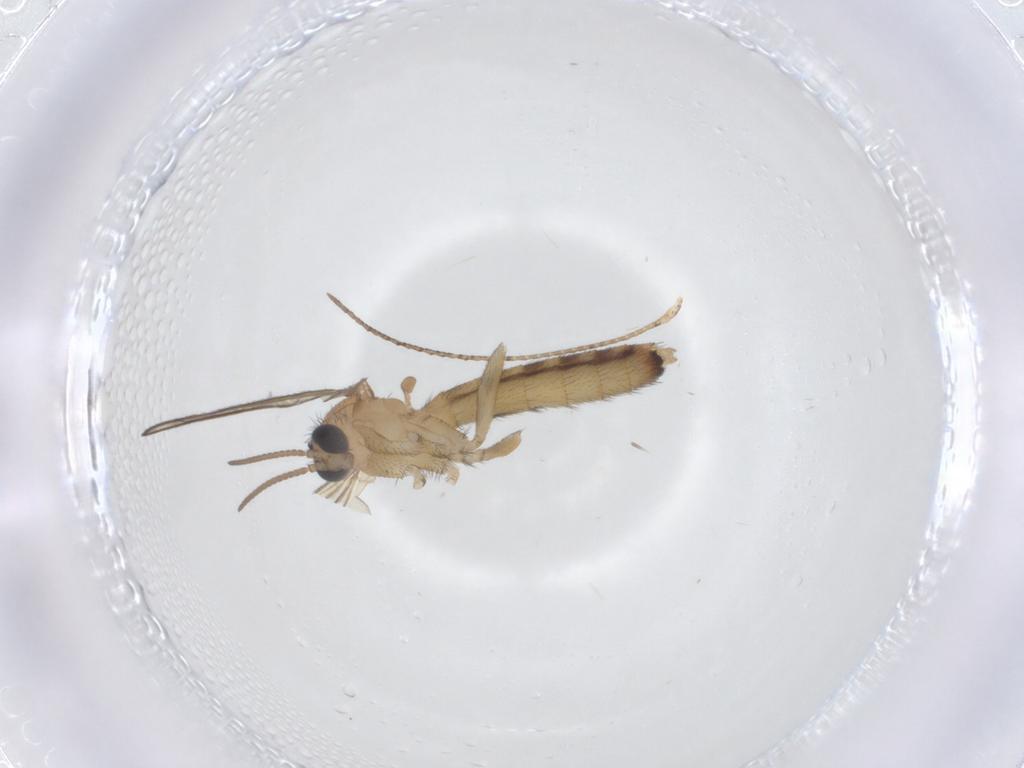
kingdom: Animalia
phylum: Arthropoda
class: Insecta
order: Diptera
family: Keroplatidae
